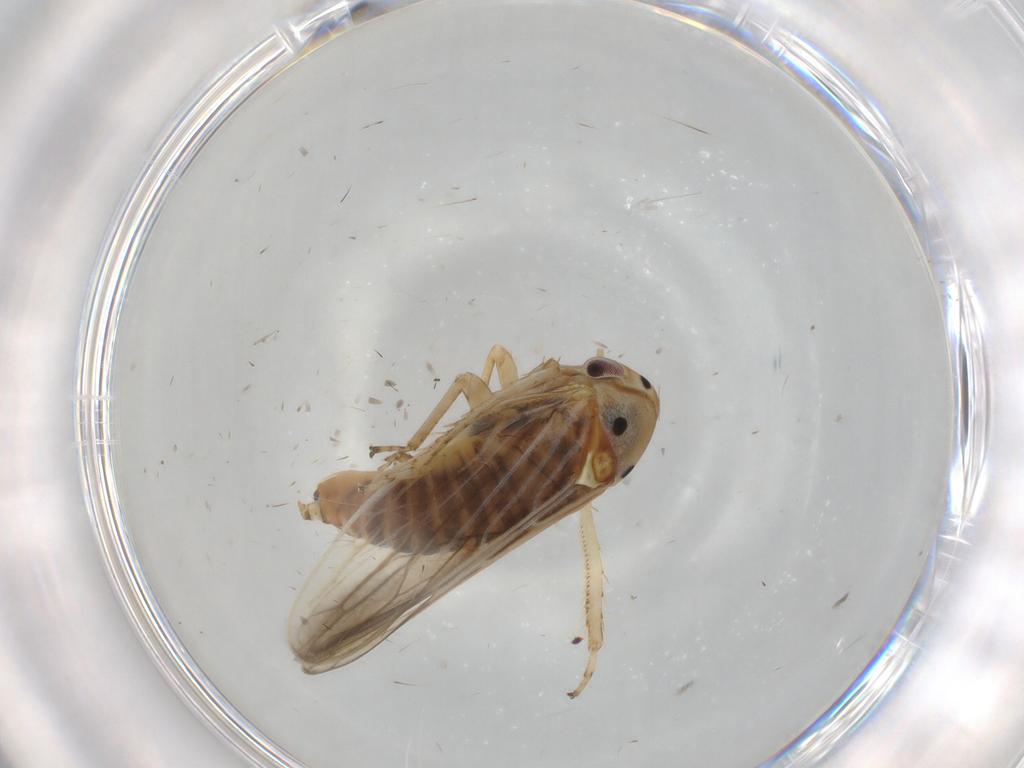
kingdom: Animalia
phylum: Arthropoda
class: Insecta
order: Hemiptera
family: Cicadellidae
